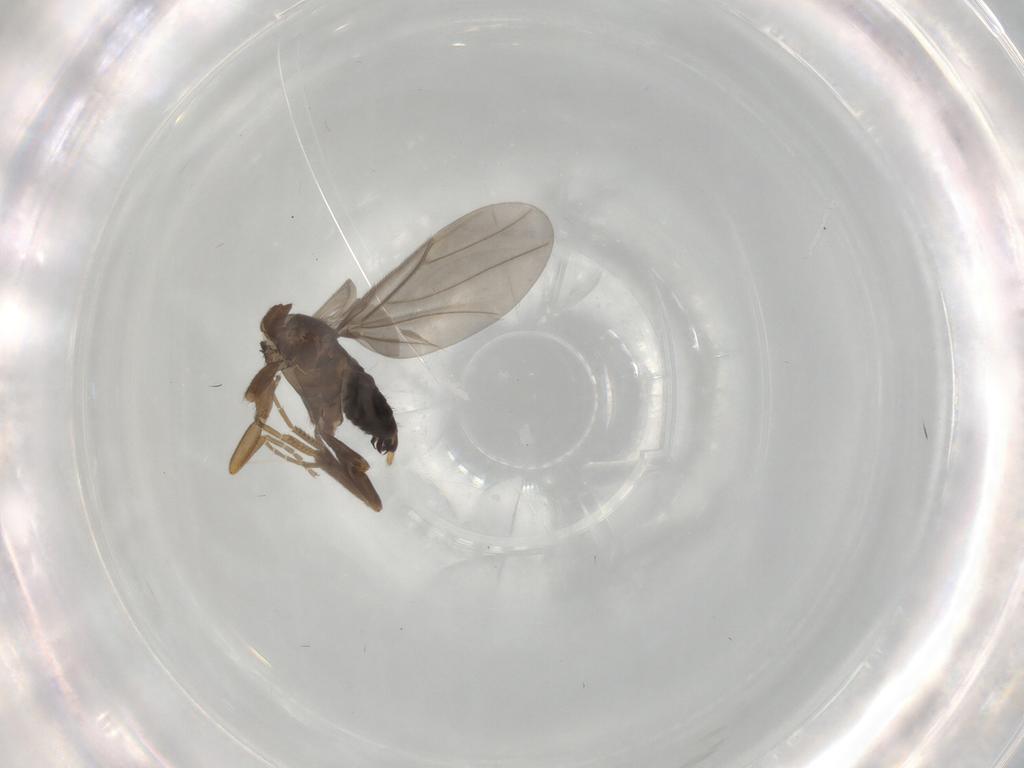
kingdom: Animalia
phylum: Arthropoda
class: Insecta
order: Diptera
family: Phoridae
